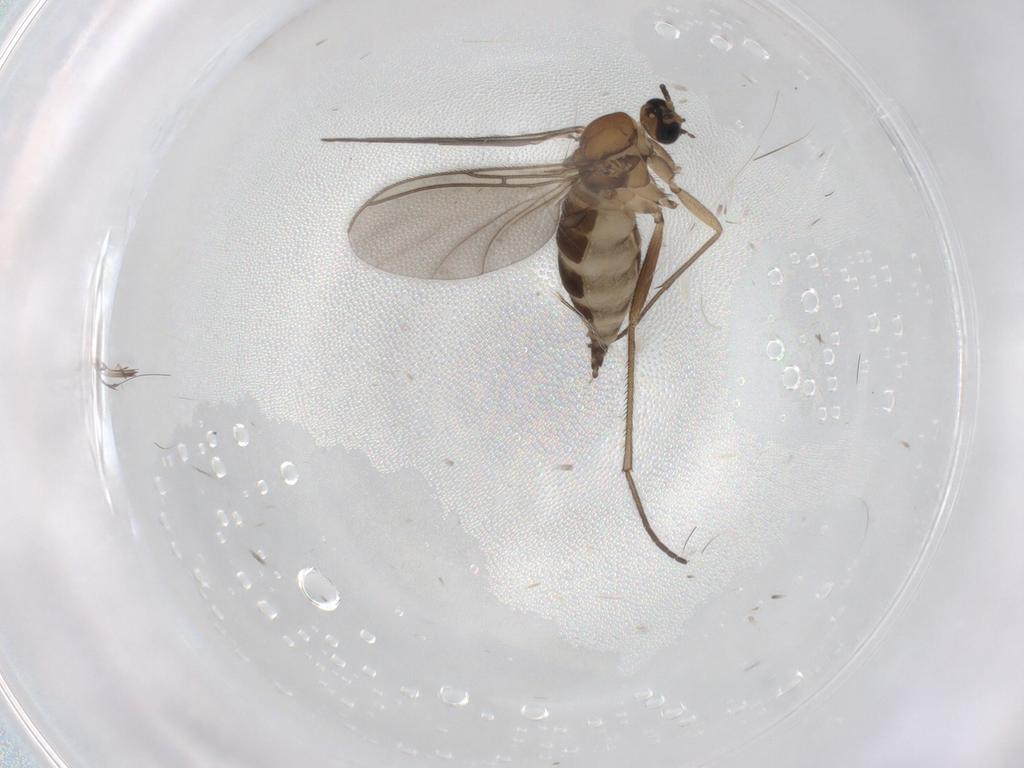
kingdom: Animalia
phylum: Arthropoda
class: Insecta
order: Diptera
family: Sciaridae
